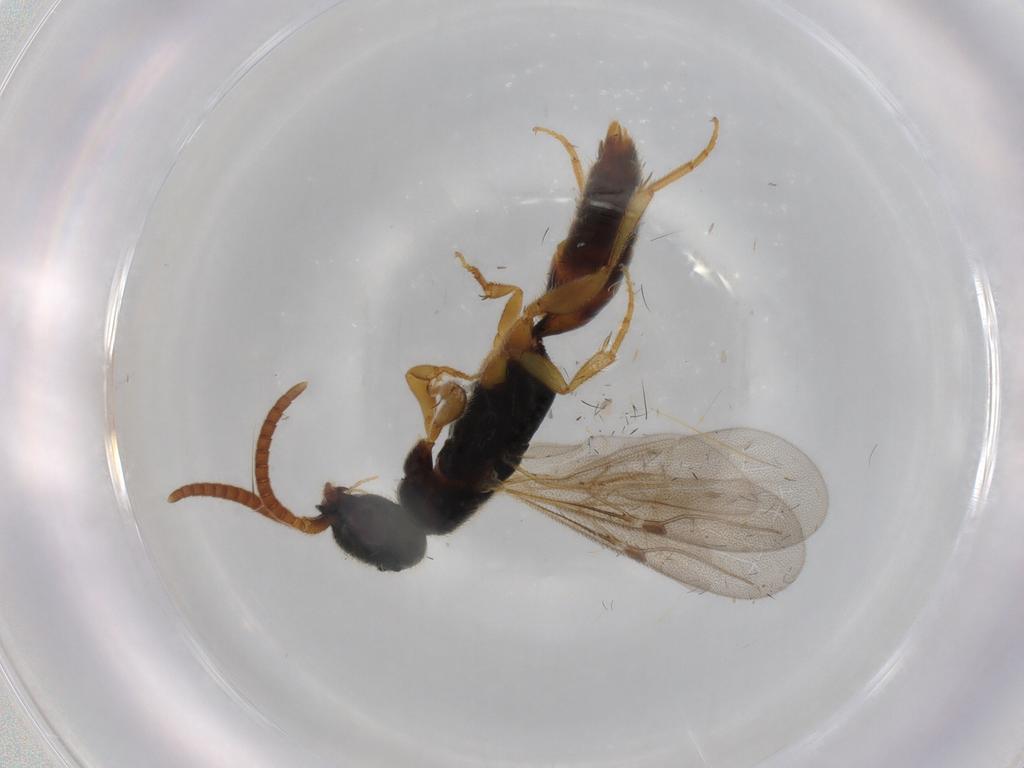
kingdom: Animalia
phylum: Arthropoda
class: Insecta
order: Hymenoptera
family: Bethylidae
